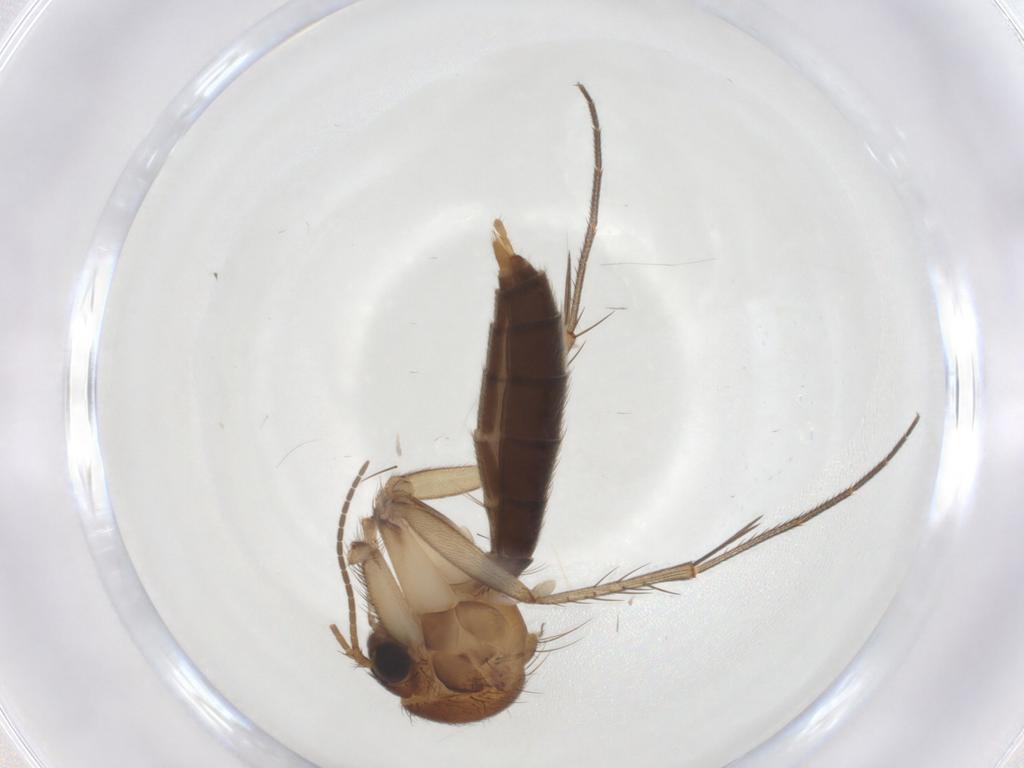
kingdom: Animalia
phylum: Arthropoda
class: Insecta
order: Diptera
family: Mycetophilidae
